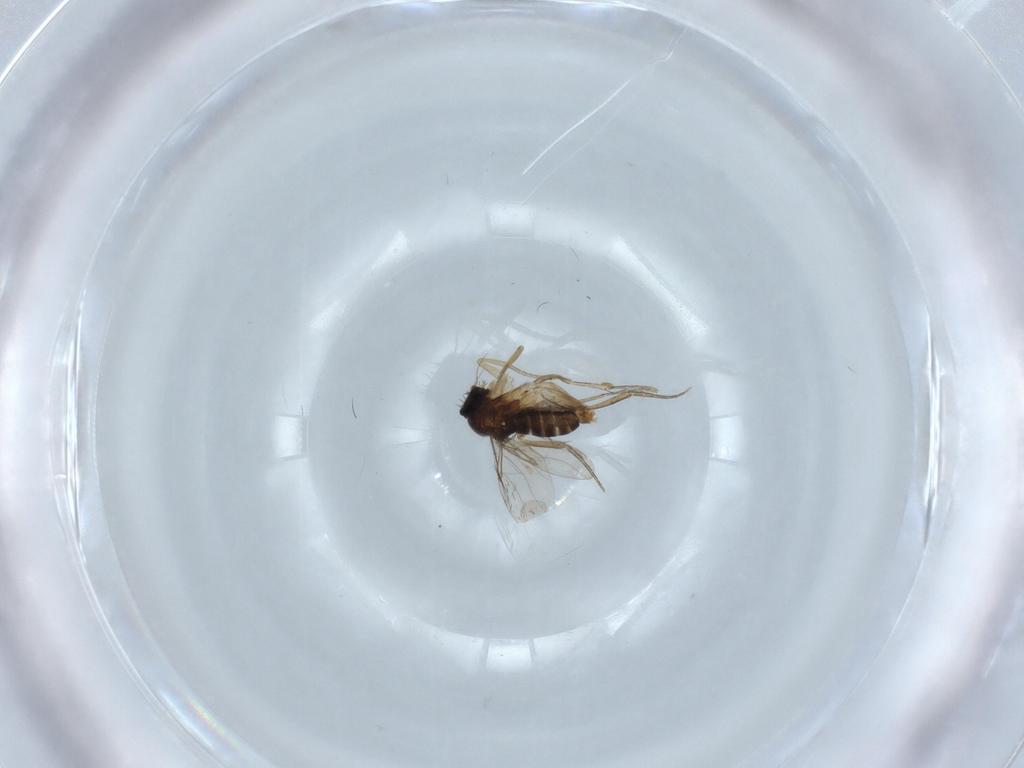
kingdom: Animalia
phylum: Arthropoda
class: Insecta
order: Diptera
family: Phoridae
